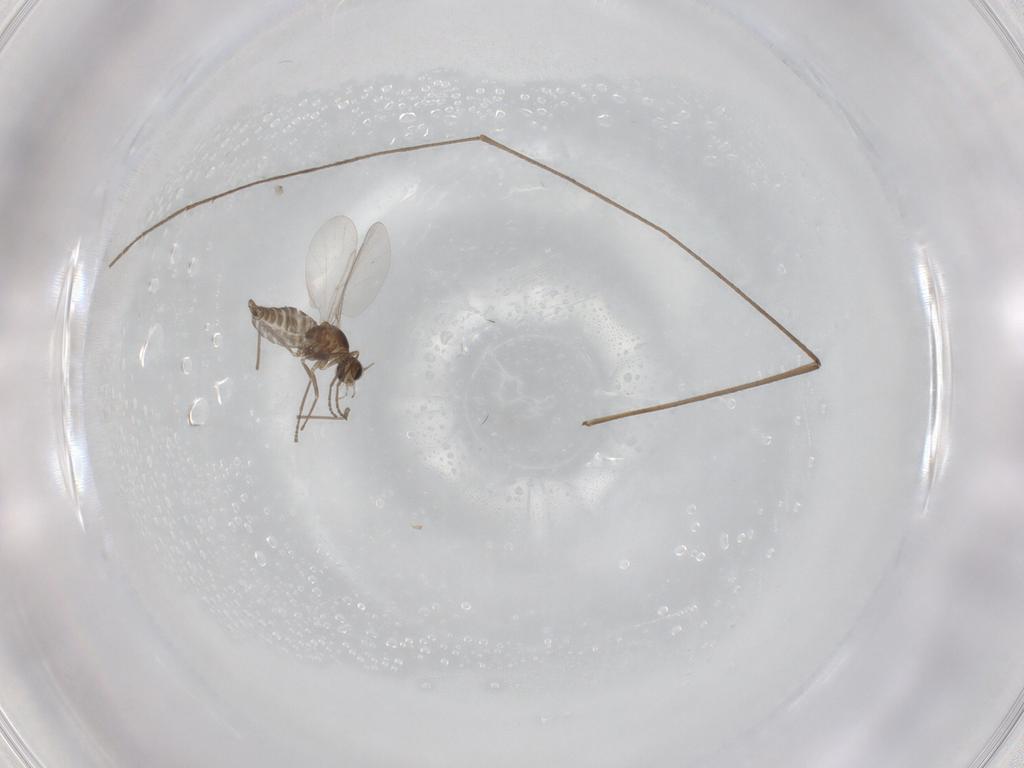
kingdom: Animalia
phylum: Arthropoda
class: Insecta
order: Diptera
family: Cecidomyiidae
